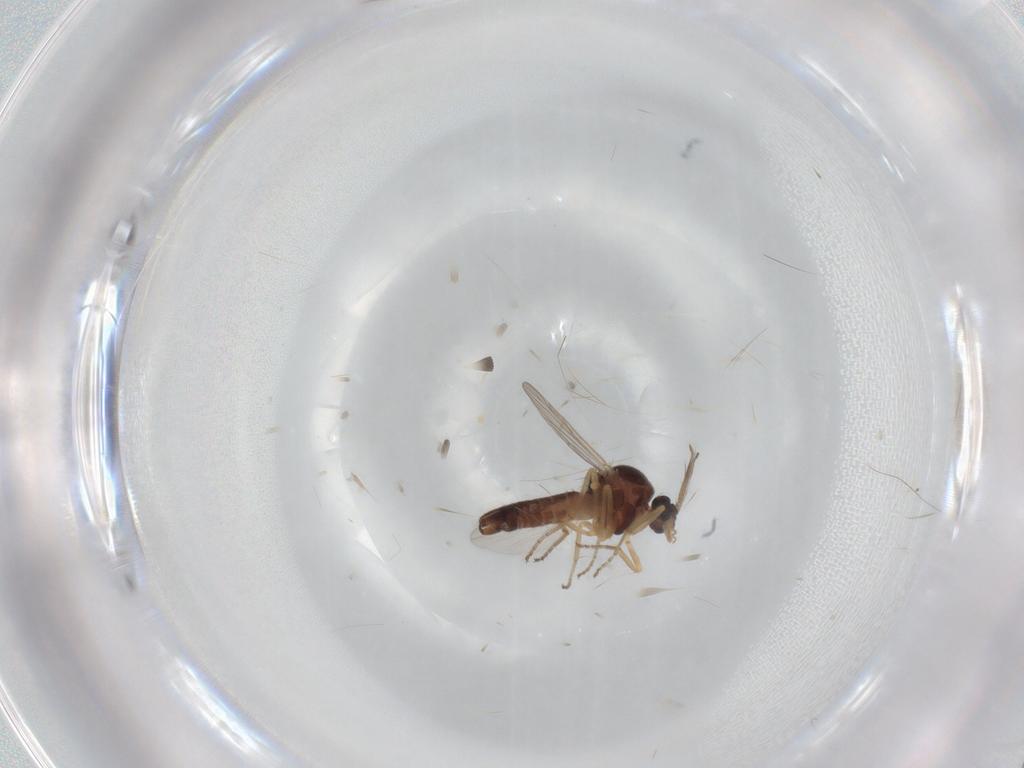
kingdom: Animalia
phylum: Arthropoda
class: Insecta
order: Diptera
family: Ceratopogonidae
